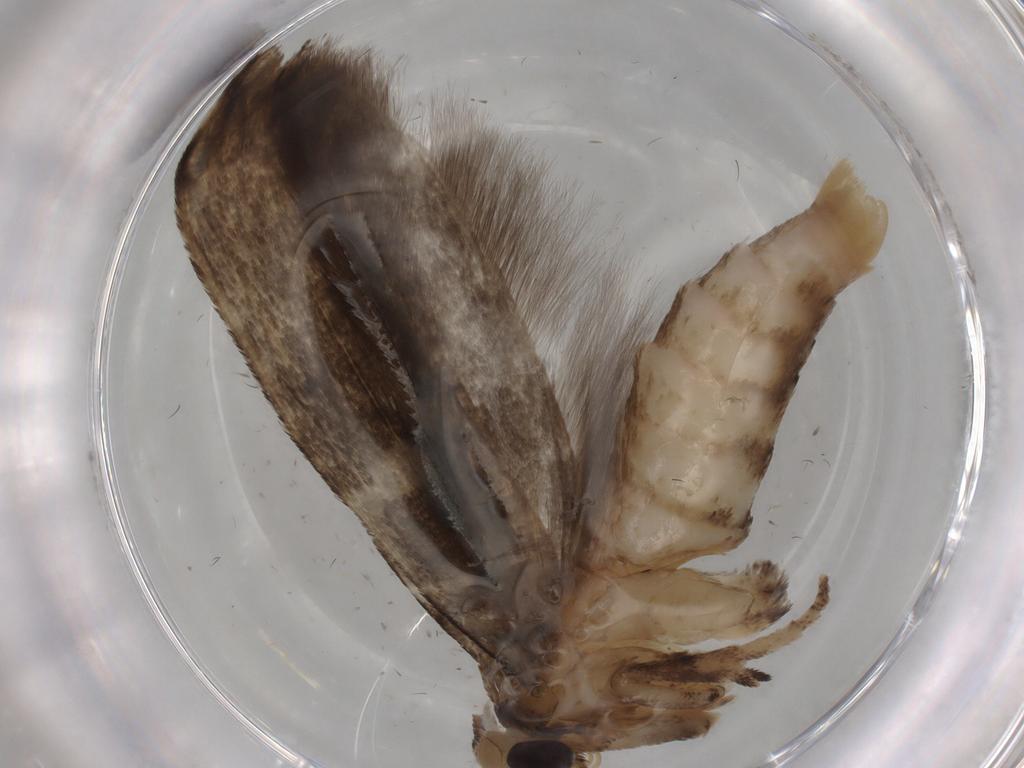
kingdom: Animalia
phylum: Arthropoda
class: Insecta
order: Lepidoptera
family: Yponomeutidae
